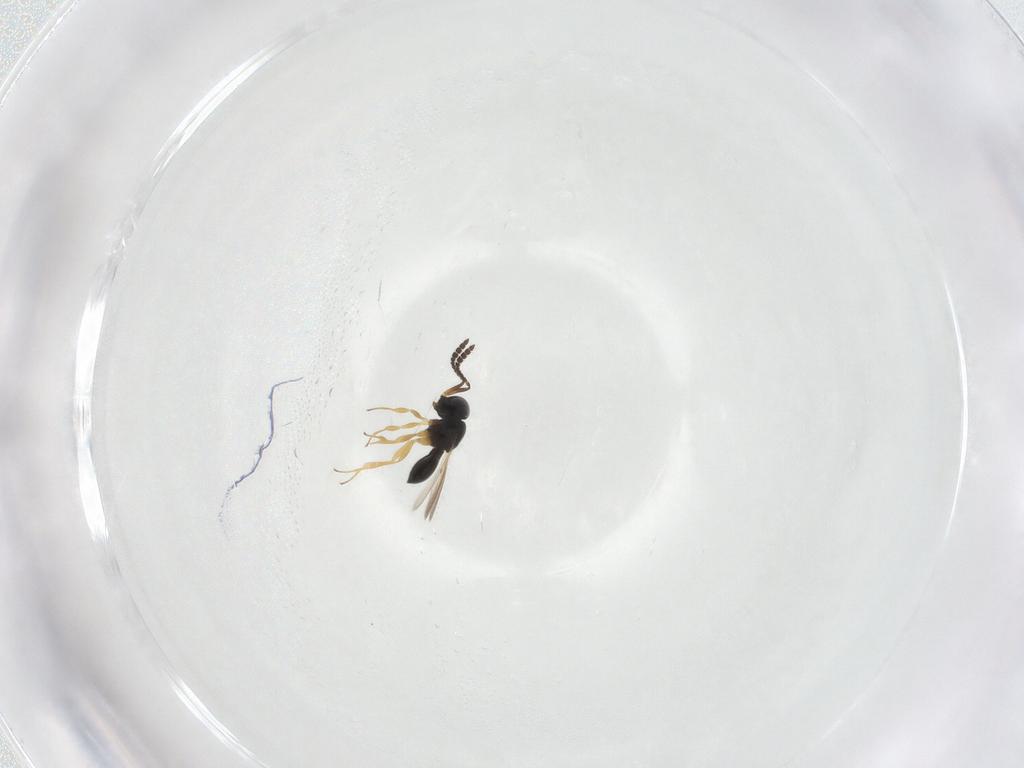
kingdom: Animalia
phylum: Arthropoda
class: Insecta
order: Hymenoptera
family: Scelionidae
